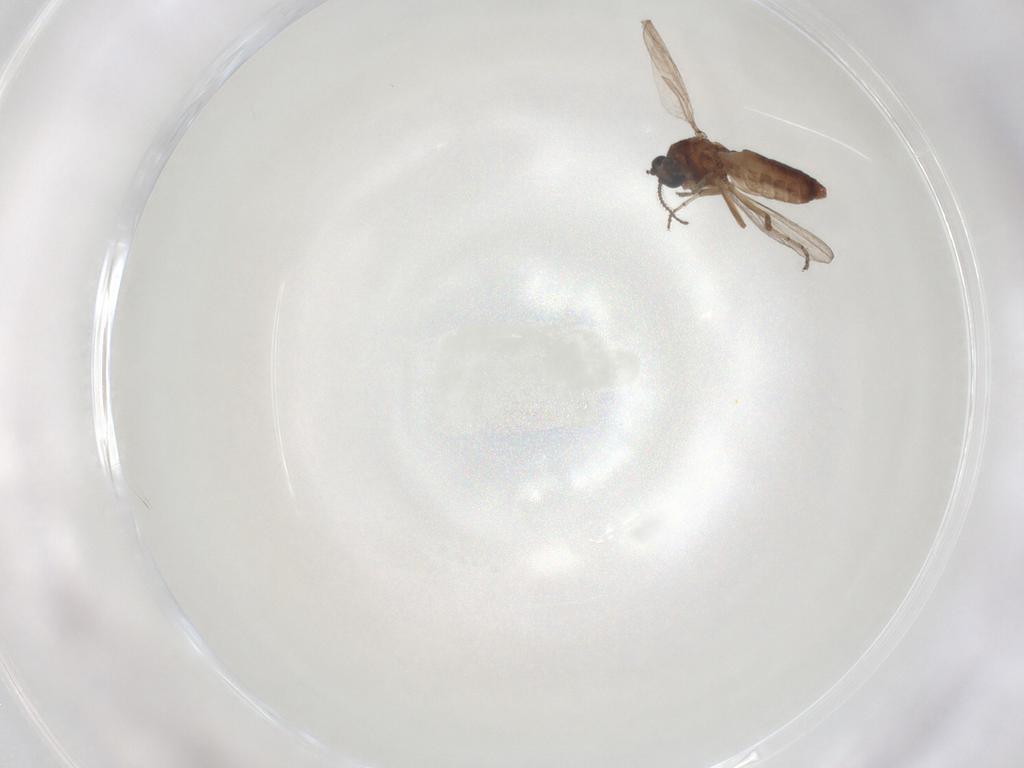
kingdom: Animalia
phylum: Arthropoda
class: Insecta
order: Diptera
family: Ceratopogonidae
